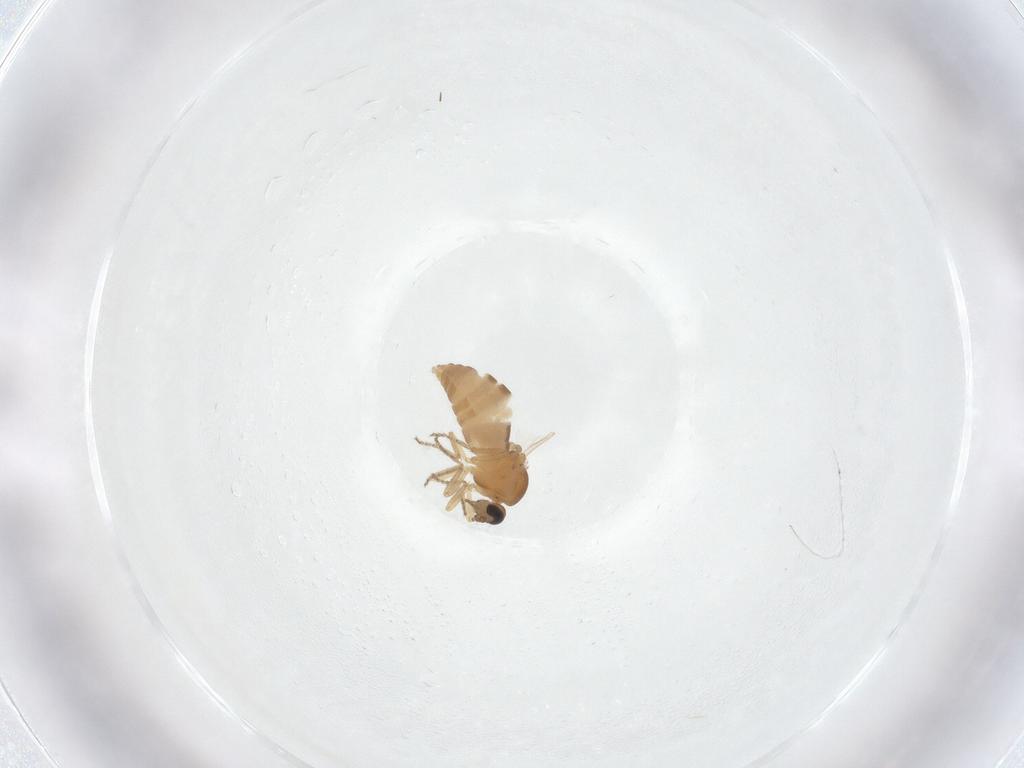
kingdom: Animalia
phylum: Arthropoda
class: Insecta
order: Diptera
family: Ceratopogonidae
